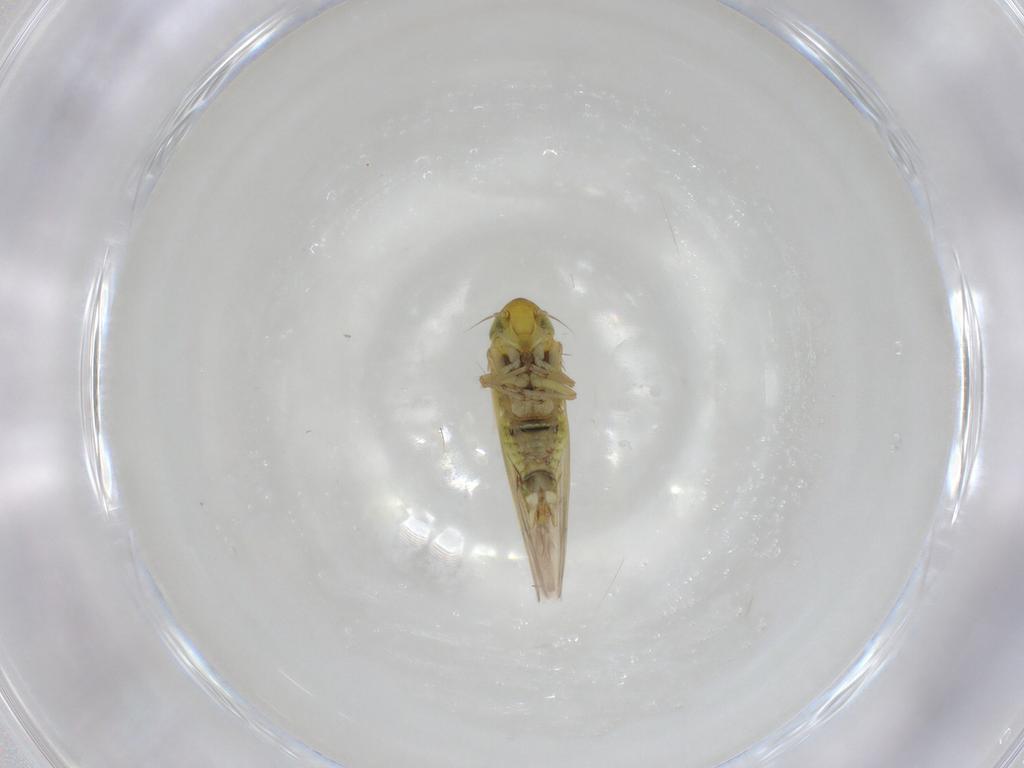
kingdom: Animalia
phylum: Arthropoda
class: Insecta
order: Hemiptera
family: Cicadellidae
